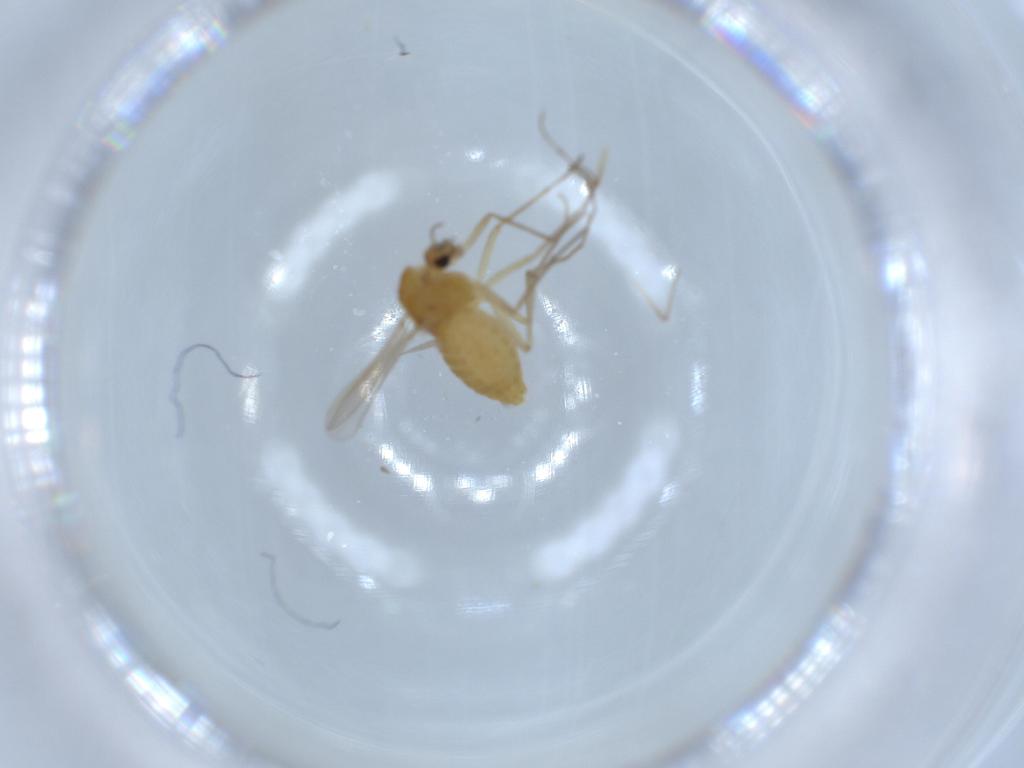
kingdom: Animalia
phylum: Arthropoda
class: Insecta
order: Diptera
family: Chironomidae
